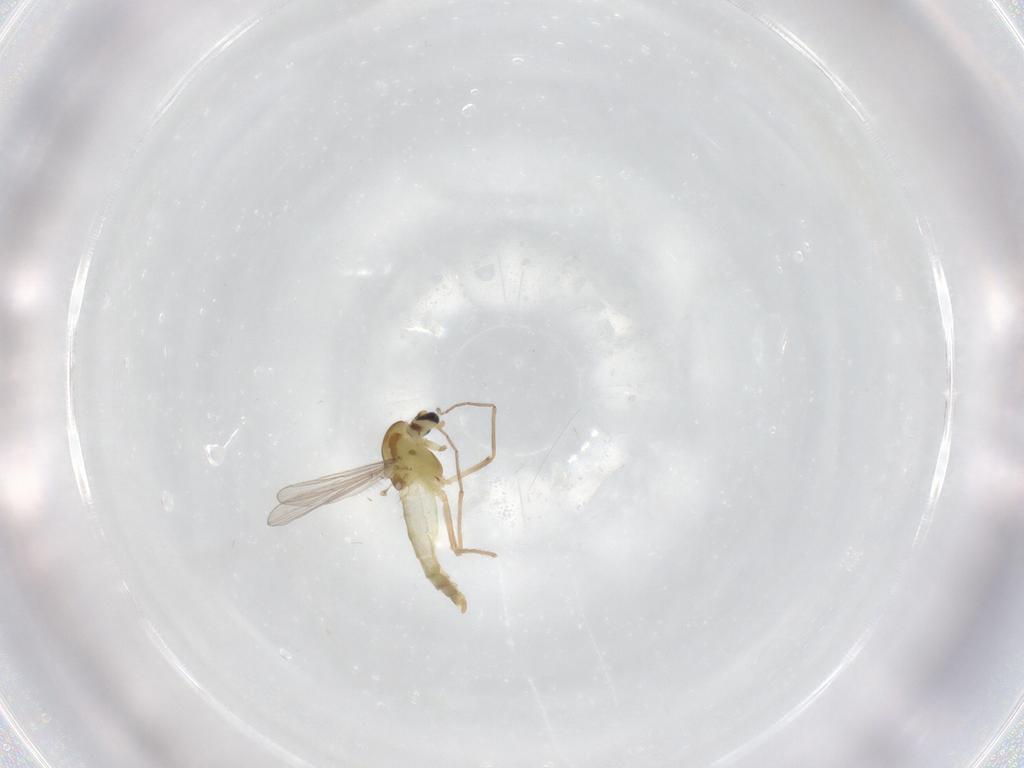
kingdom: Animalia
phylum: Arthropoda
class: Insecta
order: Diptera
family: Chironomidae
